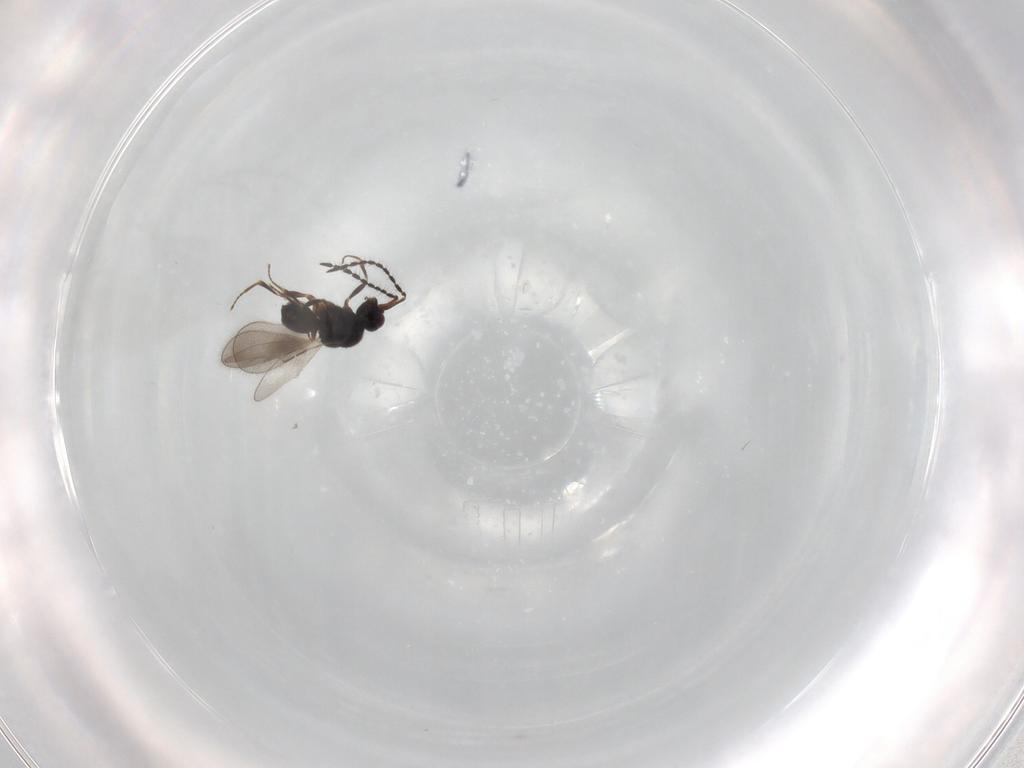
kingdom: Animalia
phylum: Arthropoda
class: Insecta
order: Hymenoptera
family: Ceraphronidae
